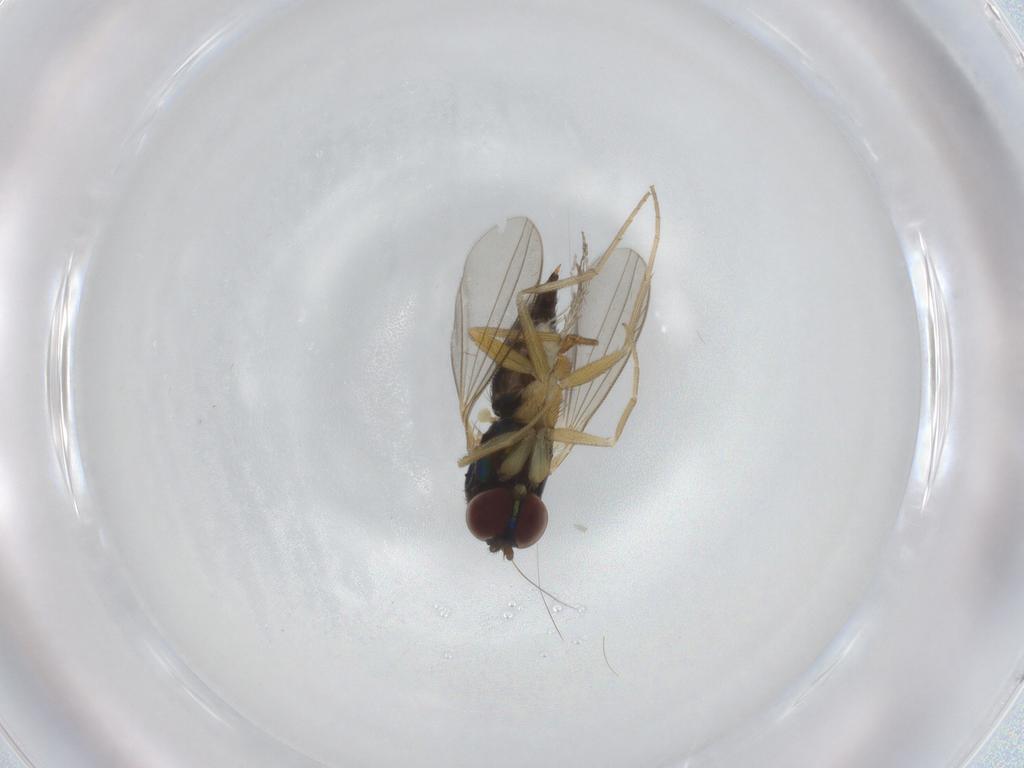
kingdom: Animalia
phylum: Arthropoda
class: Insecta
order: Diptera
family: Dolichopodidae
